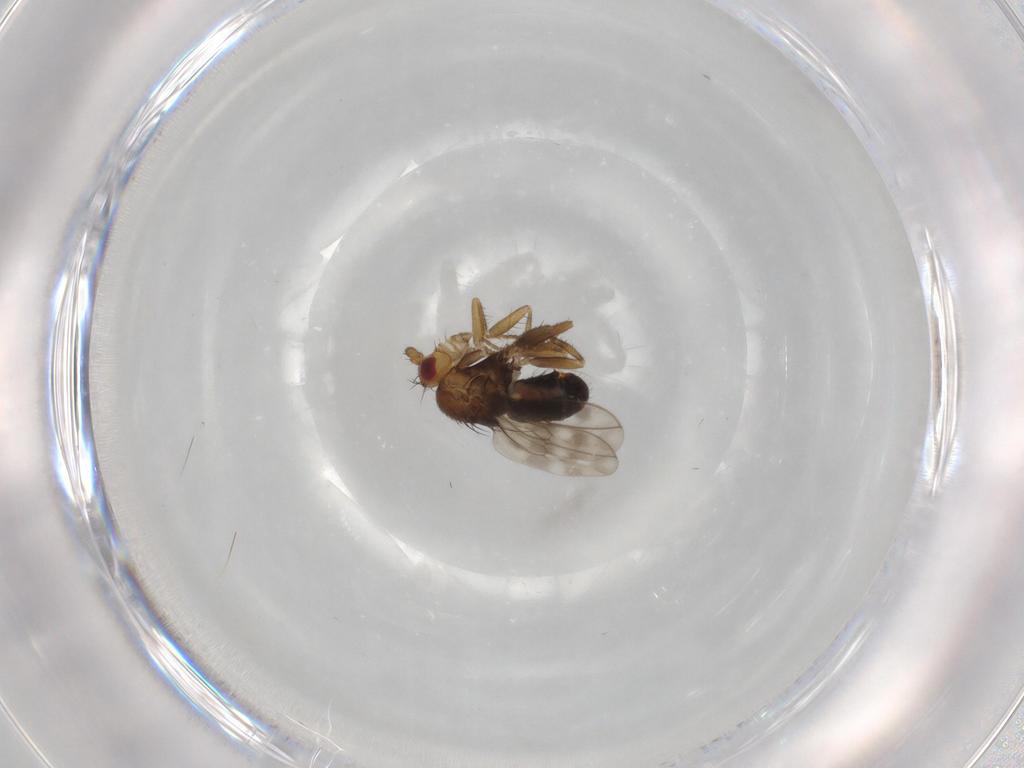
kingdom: Animalia
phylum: Arthropoda
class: Insecta
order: Diptera
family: Sphaeroceridae
